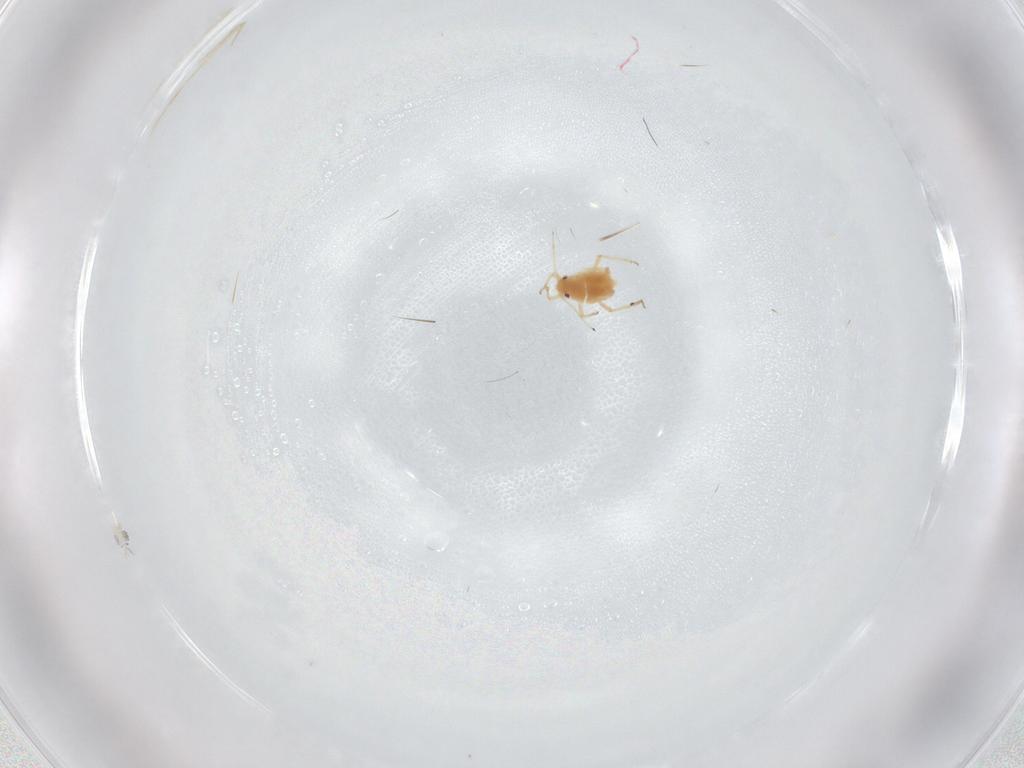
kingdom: Animalia
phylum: Arthropoda
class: Insecta
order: Hemiptera
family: Aphididae
